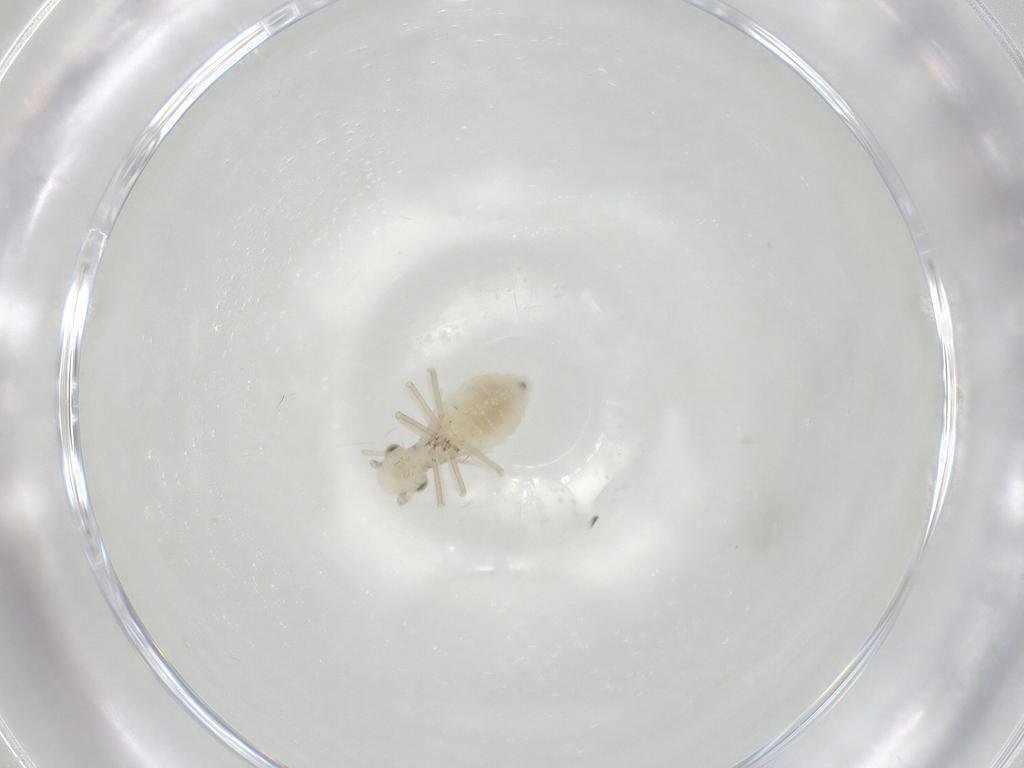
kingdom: Animalia
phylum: Arthropoda
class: Insecta
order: Psocodea
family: Caeciliusidae
